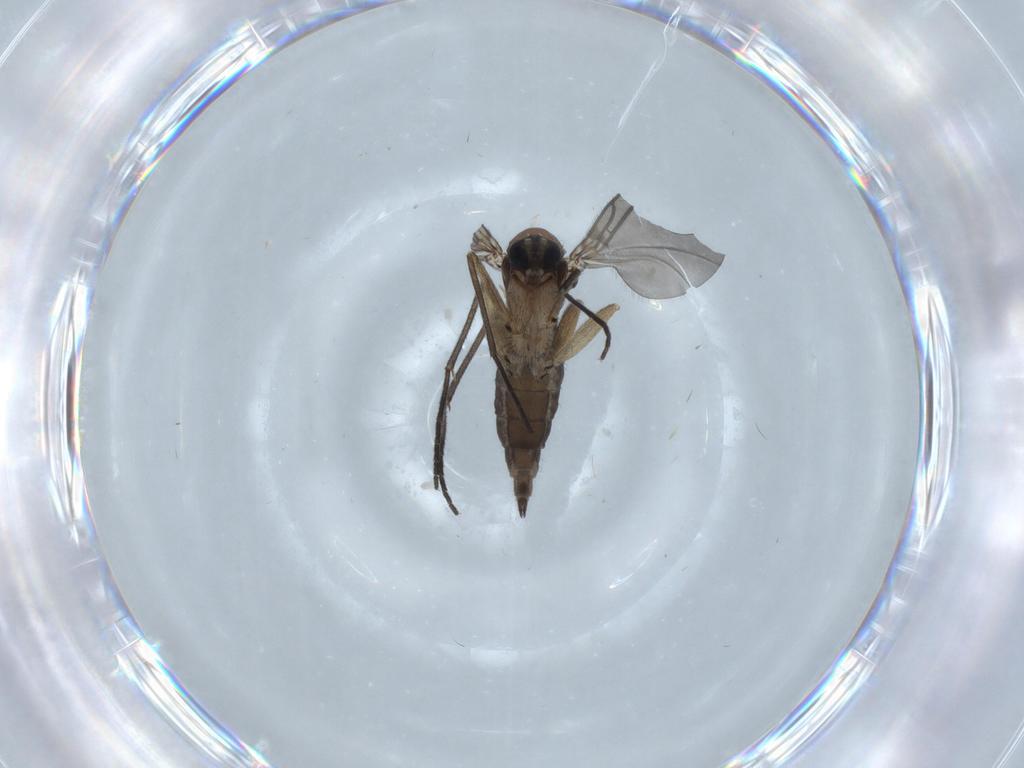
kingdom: Animalia
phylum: Arthropoda
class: Insecta
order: Diptera
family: Sciaridae
